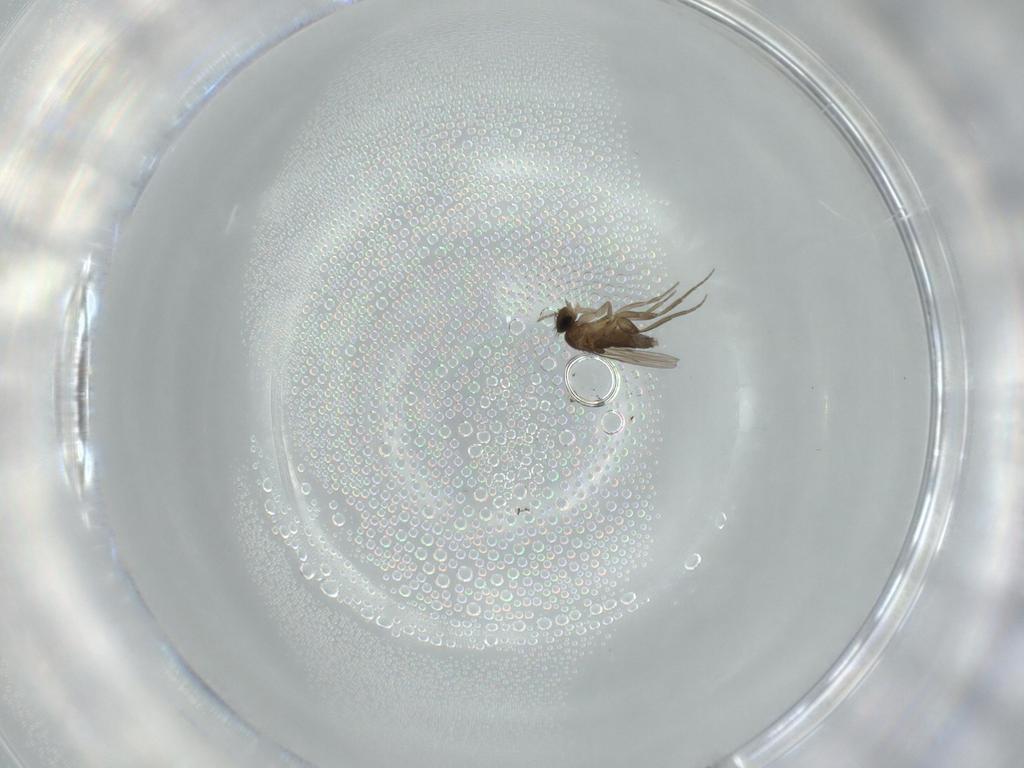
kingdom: Animalia
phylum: Arthropoda
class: Insecta
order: Diptera
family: Phoridae
